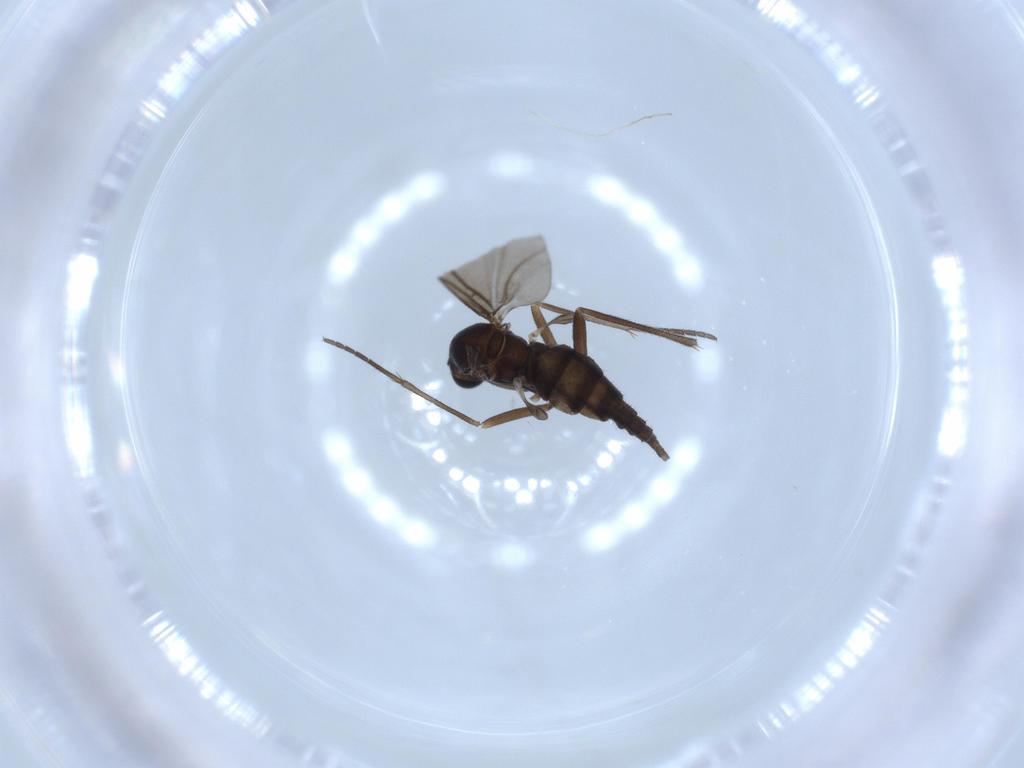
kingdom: Animalia
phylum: Arthropoda
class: Insecta
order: Diptera
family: Sciaridae
